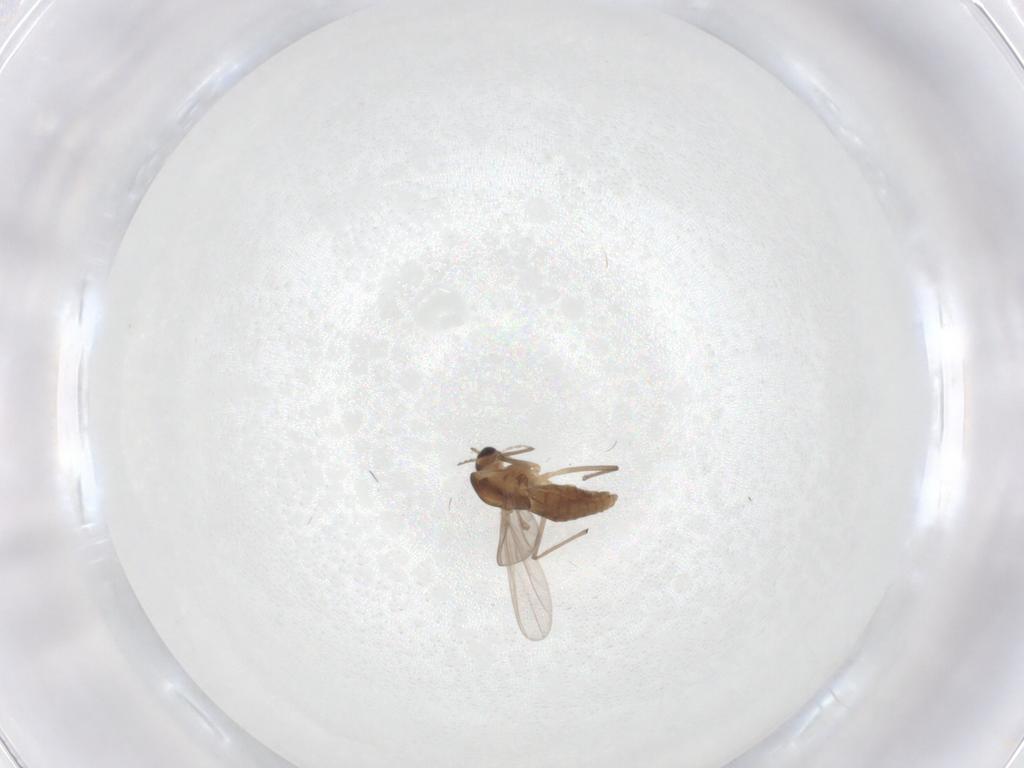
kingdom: Animalia
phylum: Arthropoda
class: Insecta
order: Diptera
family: Chironomidae
